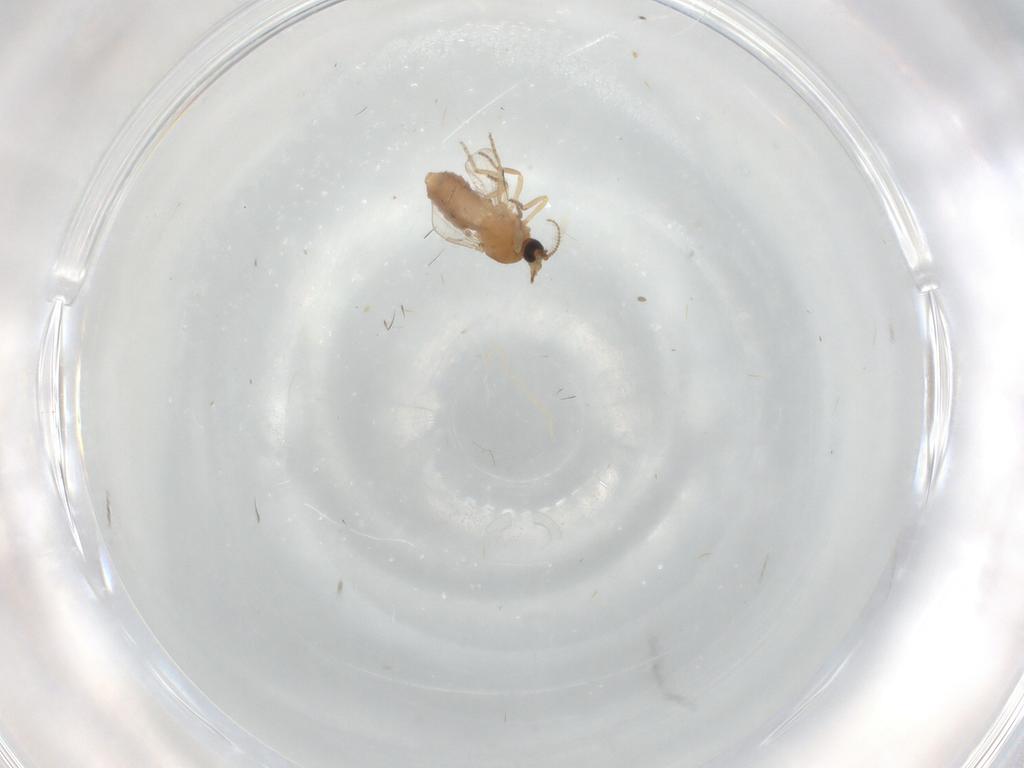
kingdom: Animalia
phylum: Arthropoda
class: Insecta
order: Diptera
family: Ceratopogonidae
